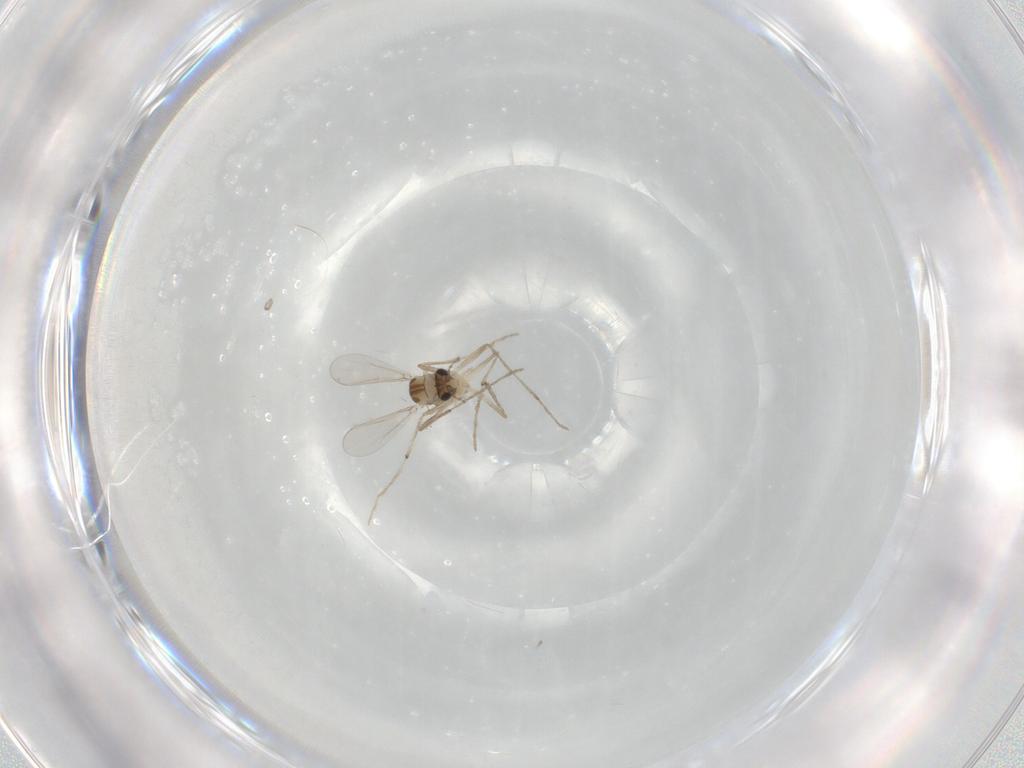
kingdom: Animalia
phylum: Arthropoda
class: Insecta
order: Diptera
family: Chironomidae
